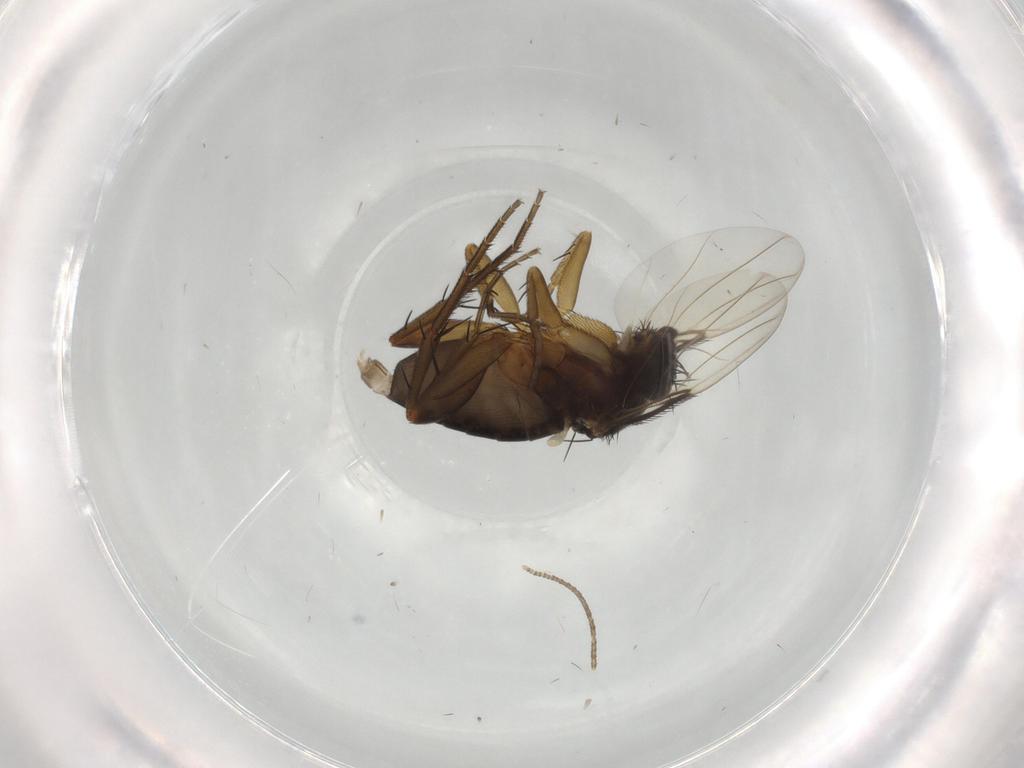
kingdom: Animalia
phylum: Arthropoda
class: Insecta
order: Diptera
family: Phoridae
